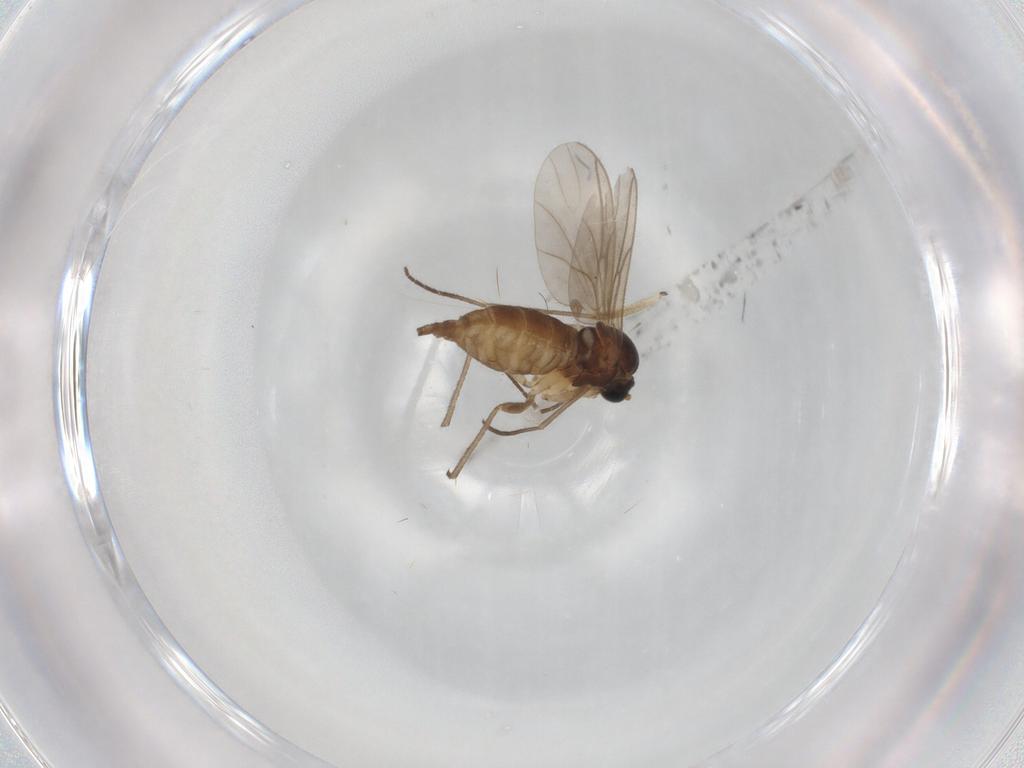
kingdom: Animalia
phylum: Arthropoda
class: Insecta
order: Diptera
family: Sciaridae
